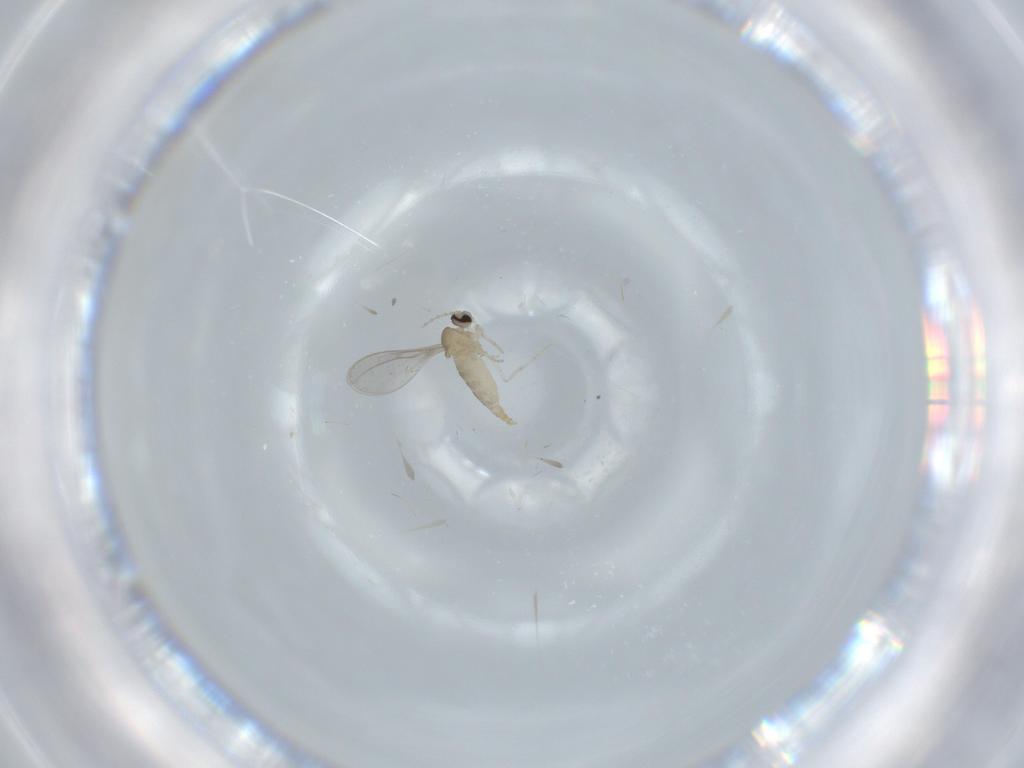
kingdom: Animalia
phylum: Arthropoda
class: Insecta
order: Diptera
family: Cecidomyiidae
